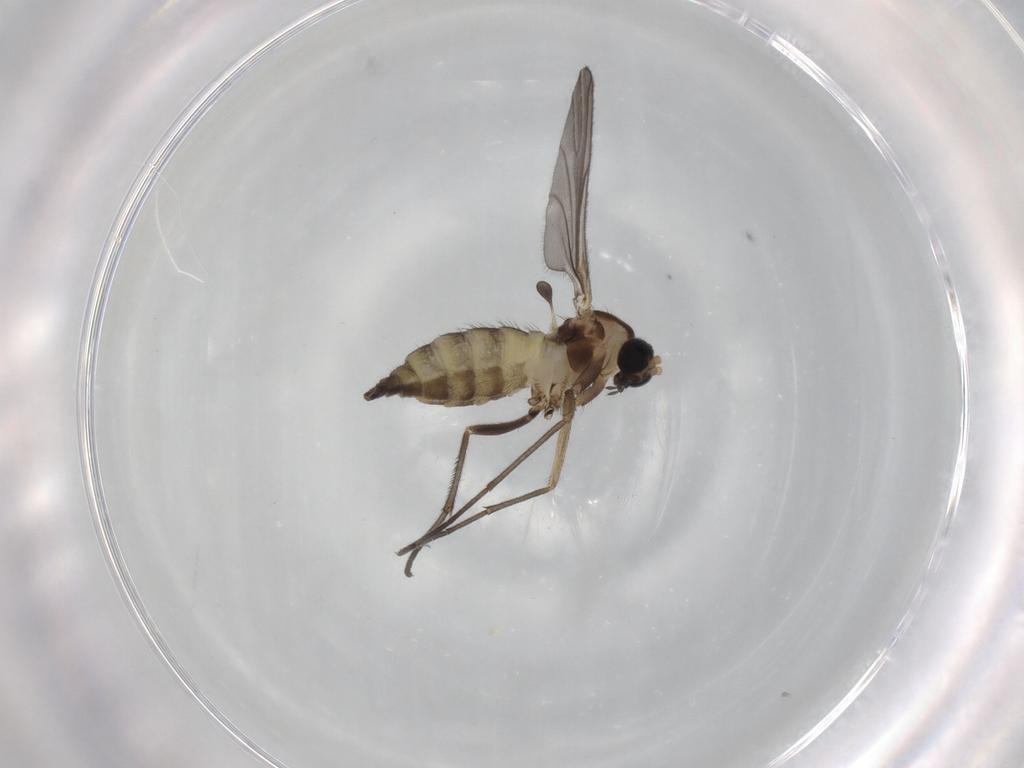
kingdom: Animalia
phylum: Arthropoda
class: Insecta
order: Diptera
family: Sciaridae
